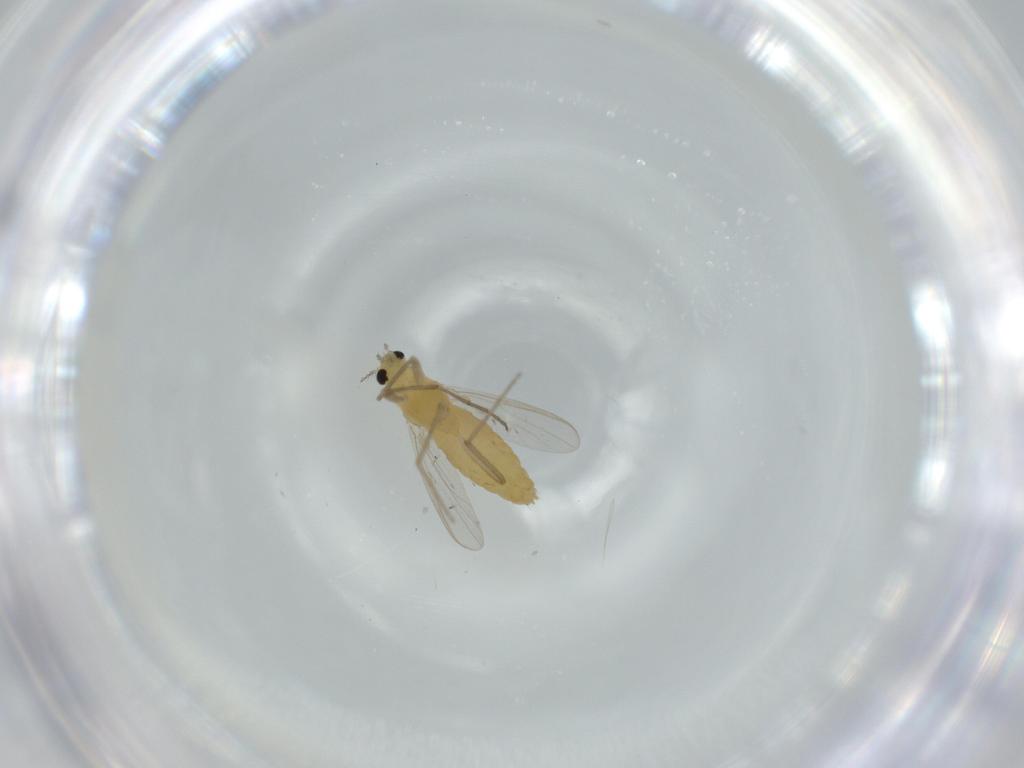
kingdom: Animalia
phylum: Arthropoda
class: Insecta
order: Diptera
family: Chironomidae
